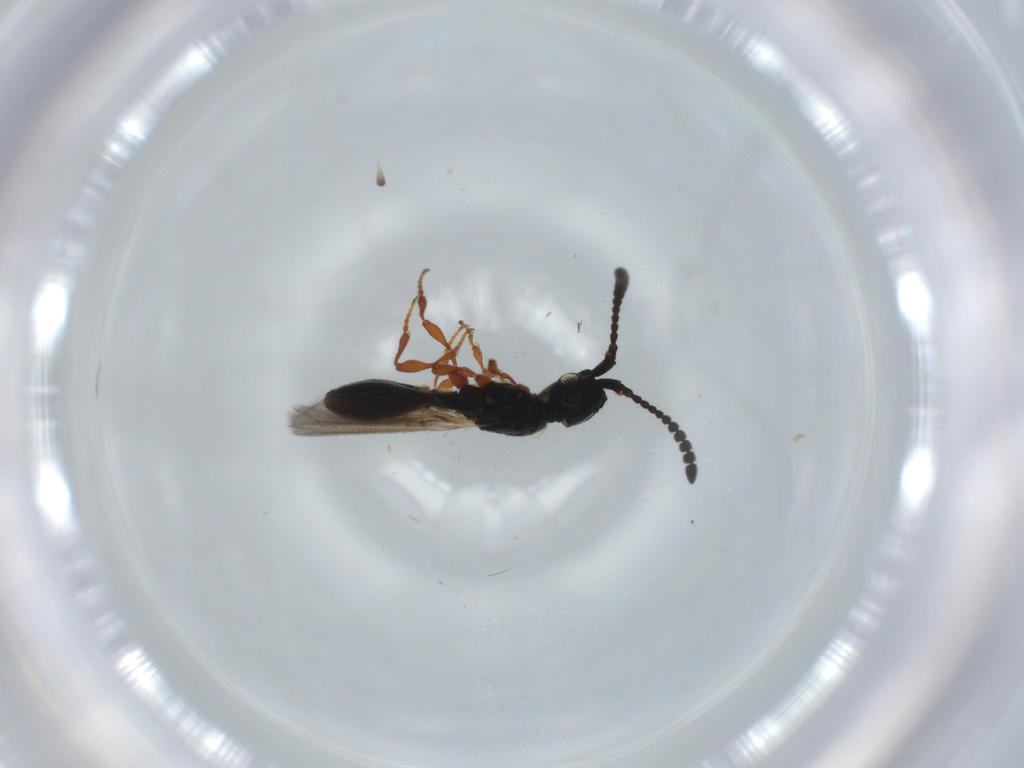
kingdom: Animalia
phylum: Arthropoda
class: Insecta
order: Hymenoptera
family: Diapriidae
